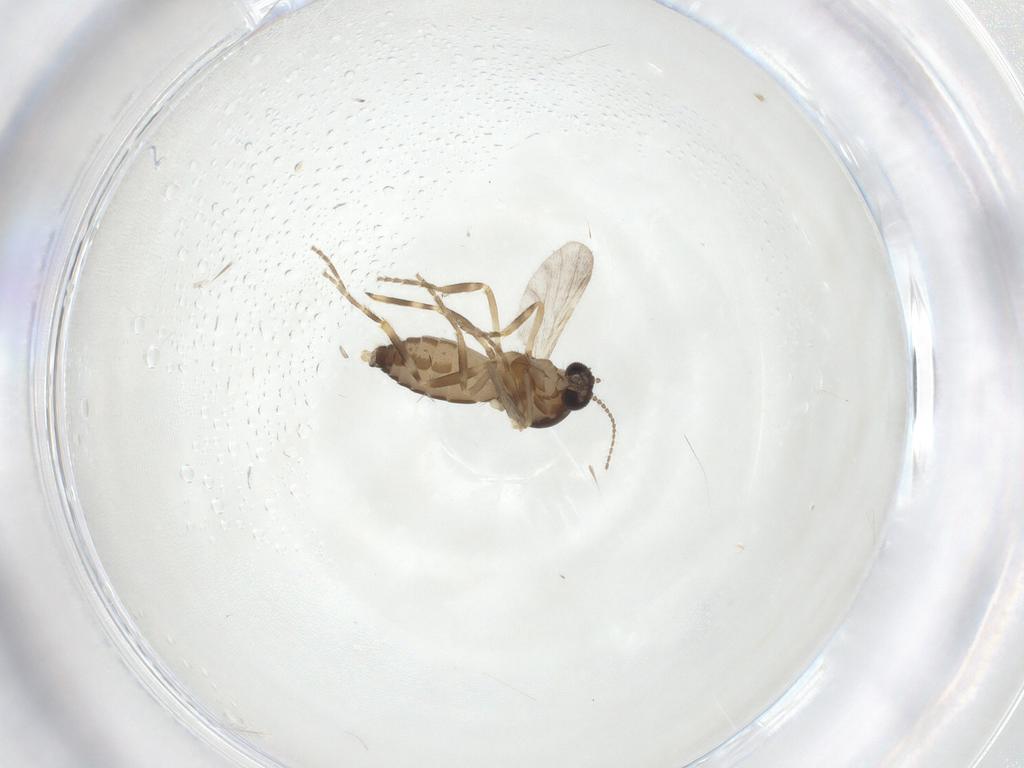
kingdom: Animalia
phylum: Arthropoda
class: Insecta
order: Diptera
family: Ceratopogonidae
